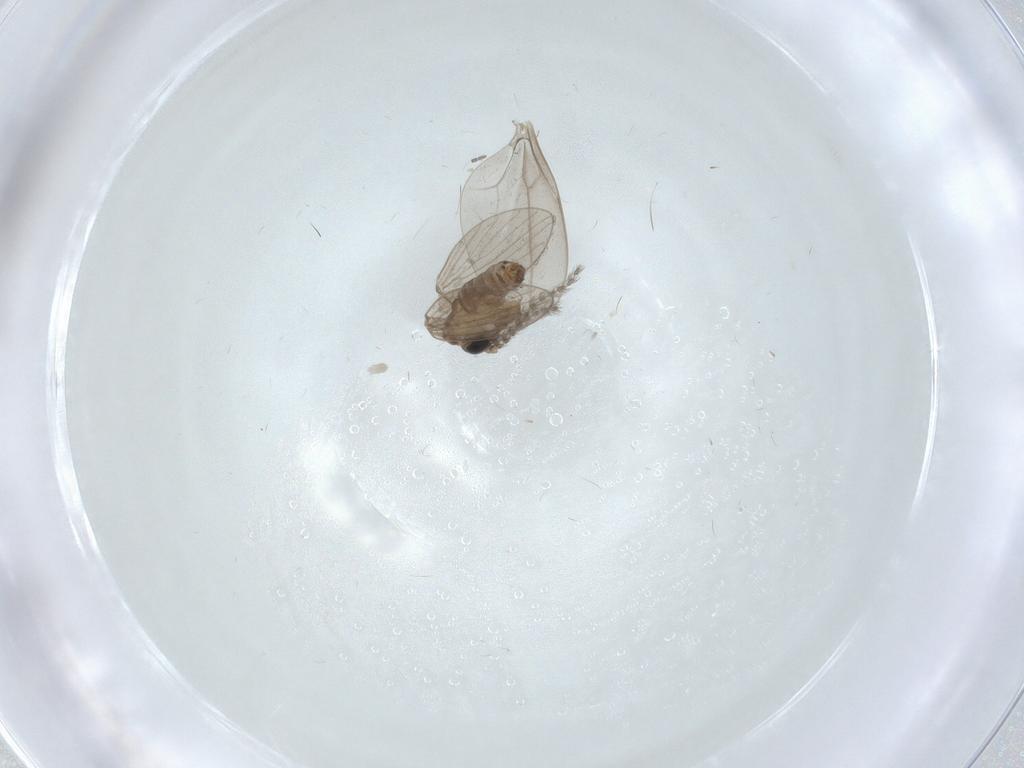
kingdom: Animalia
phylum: Arthropoda
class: Insecta
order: Diptera
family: Cecidomyiidae
